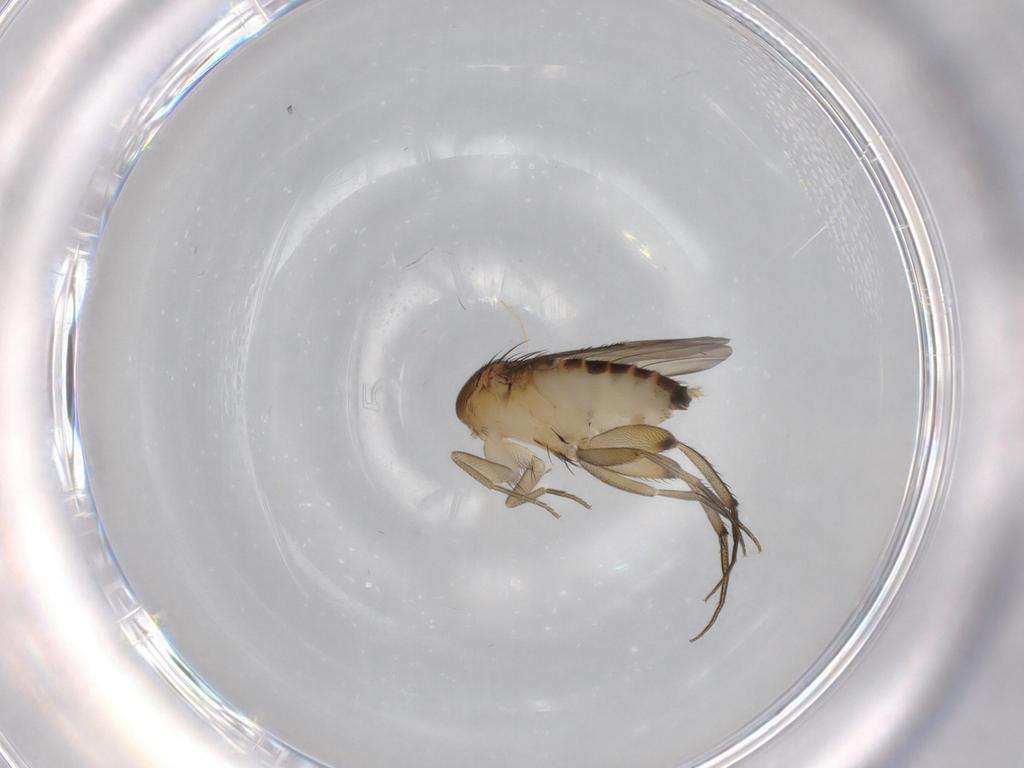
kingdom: Animalia
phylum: Arthropoda
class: Insecta
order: Diptera
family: Phoridae
